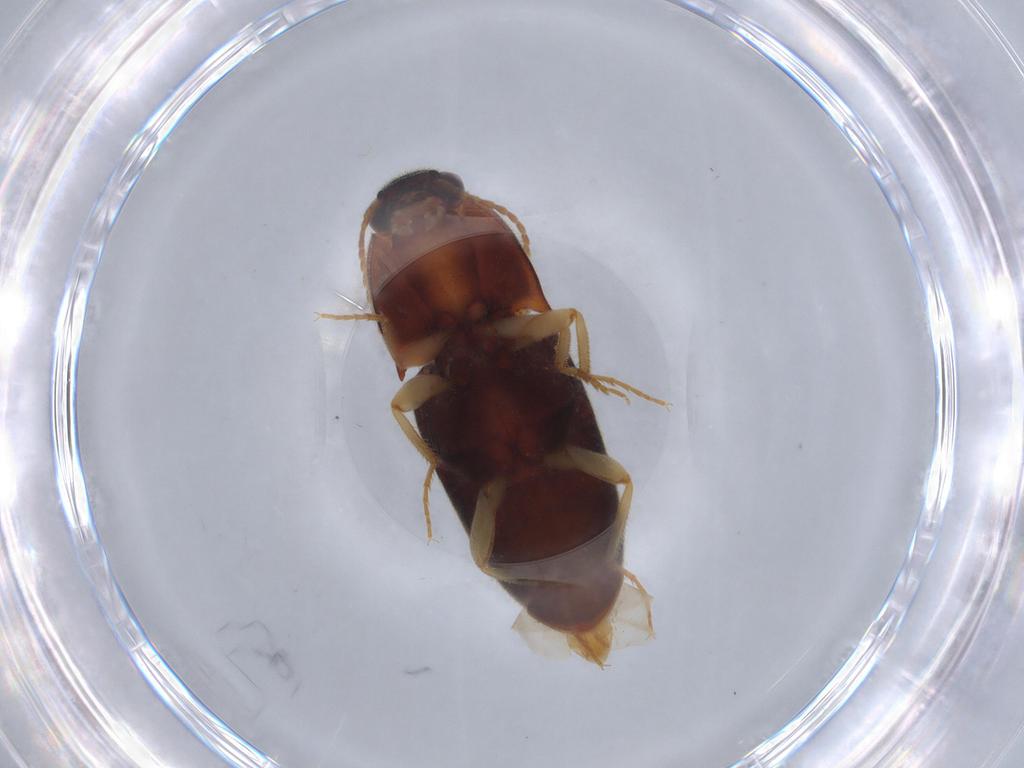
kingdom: Animalia
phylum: Arthropoda
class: Insecta
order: Coleoptera
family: Elateridae
